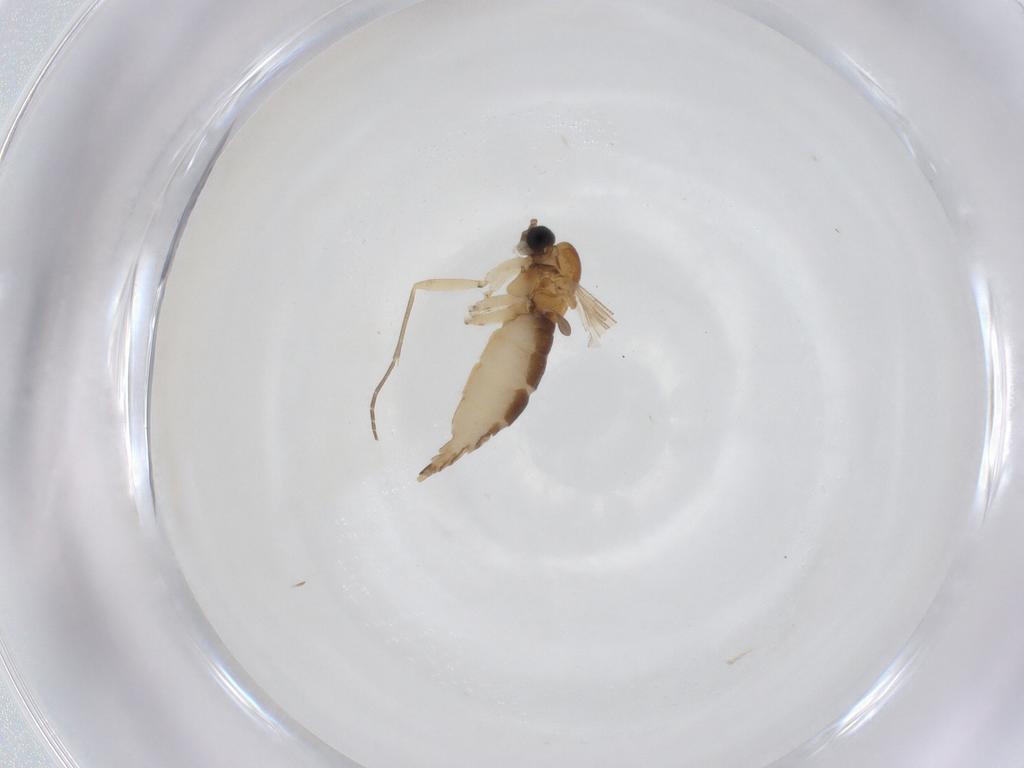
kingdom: Animalia
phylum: Arthropoda
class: Insecta
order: Diptera
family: Sciaridae
